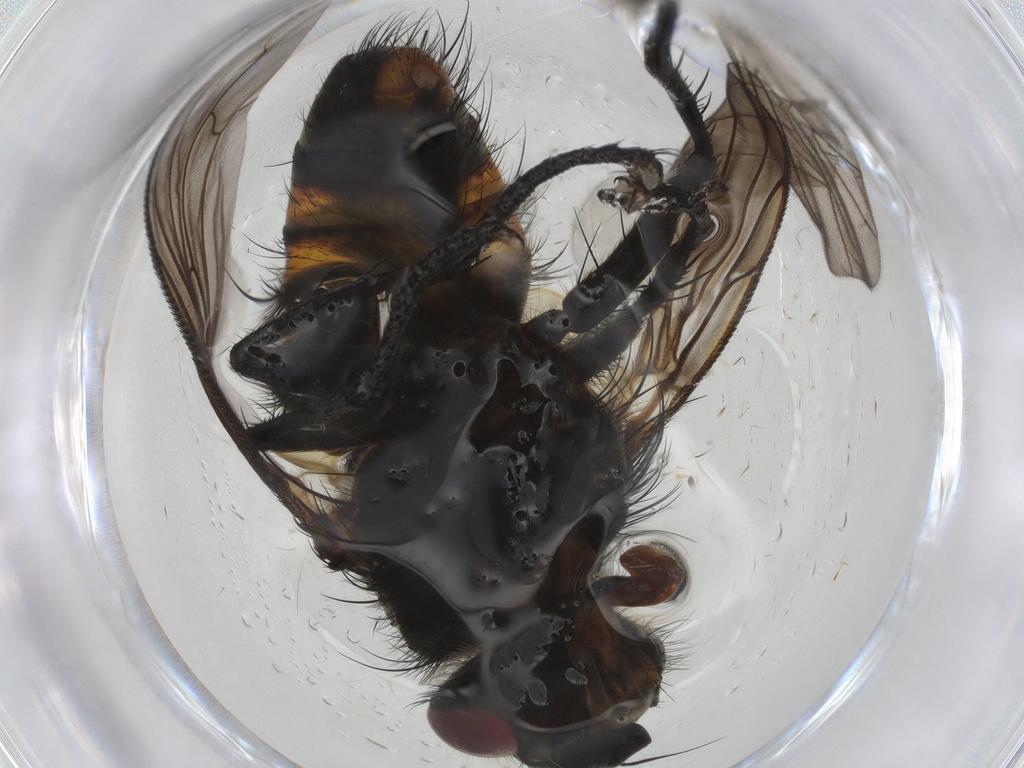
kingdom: Animalia
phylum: Arthropoda
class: Insecta
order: Diptera
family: Tachinidae
